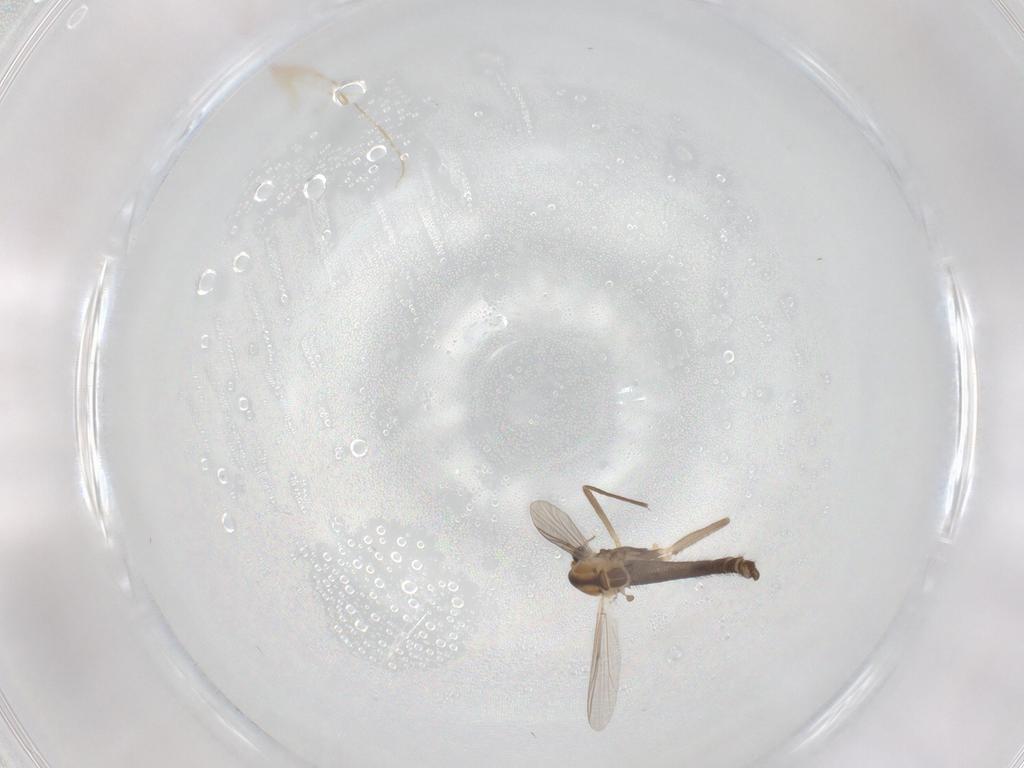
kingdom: Animalia
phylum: Arthropoda
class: Insecta
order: Diptera
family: Chironomidae
